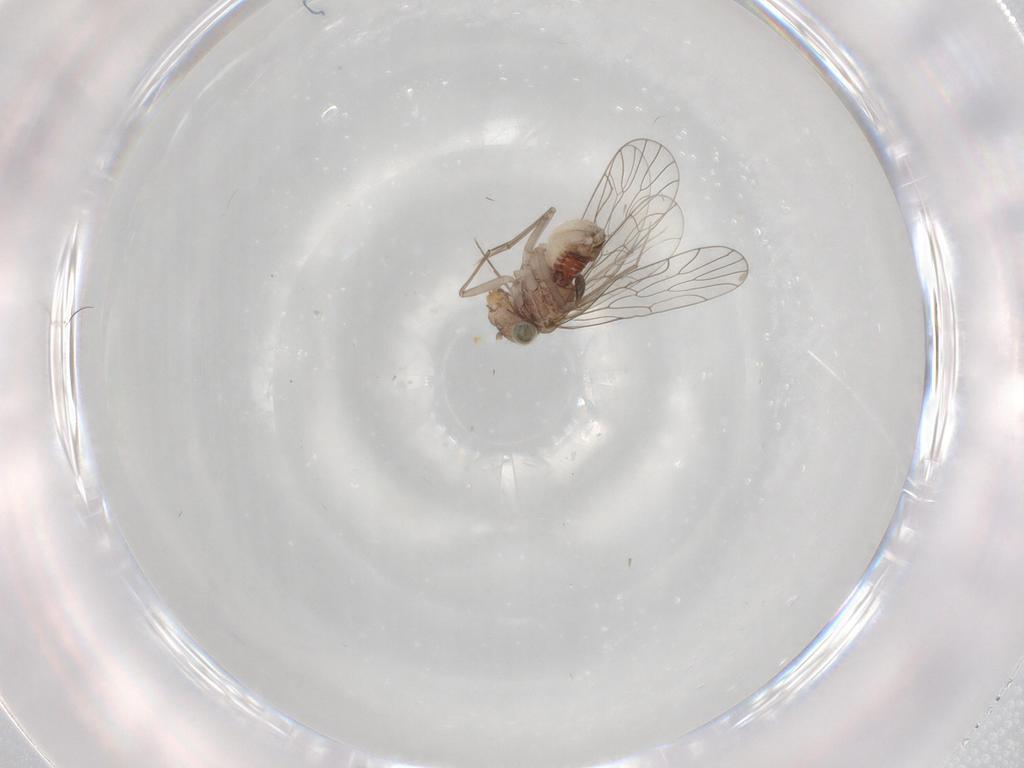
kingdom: Animalia
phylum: Arthropoda
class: Insecta
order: Psocodea
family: Amphientomidae
